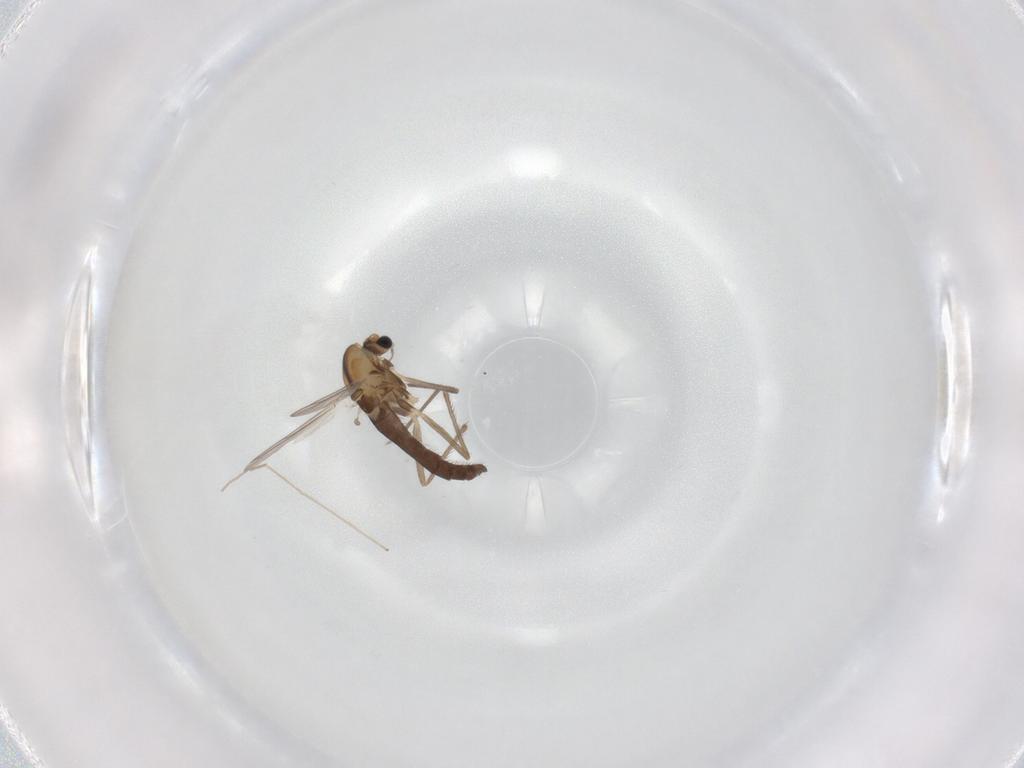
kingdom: Animalia
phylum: Arthropoda
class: Insecta
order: Diptera
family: Chironomidae
